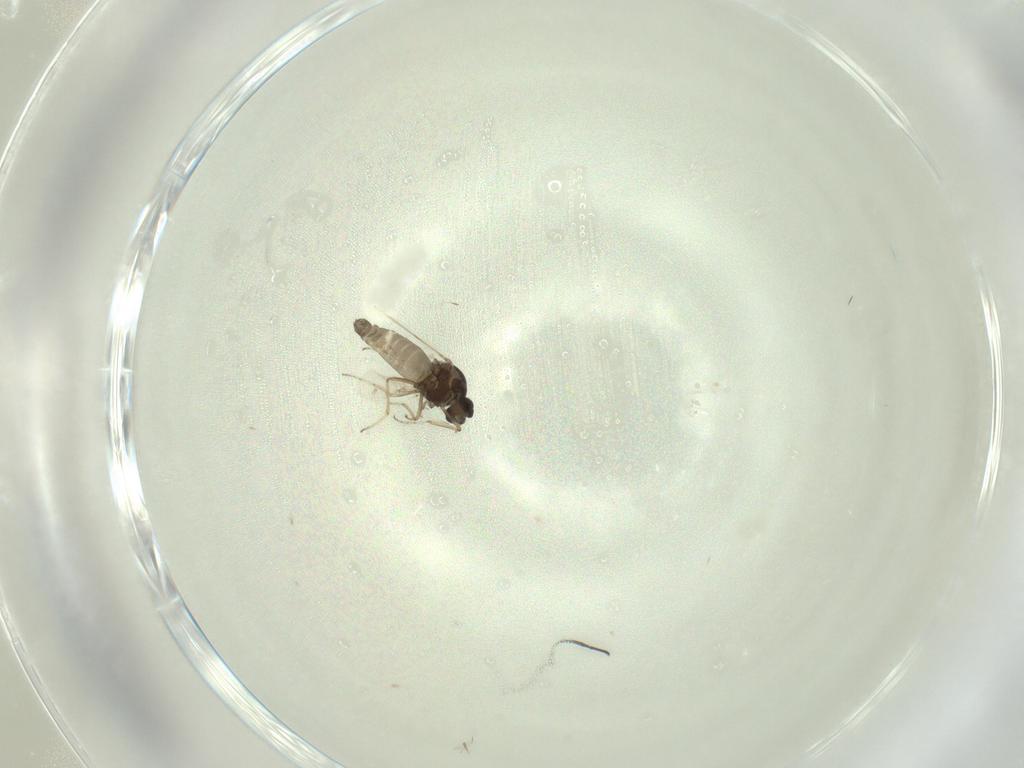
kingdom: Animalia
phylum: Arthropoda
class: Insecta
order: Diptera
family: Ceratopogonidae
